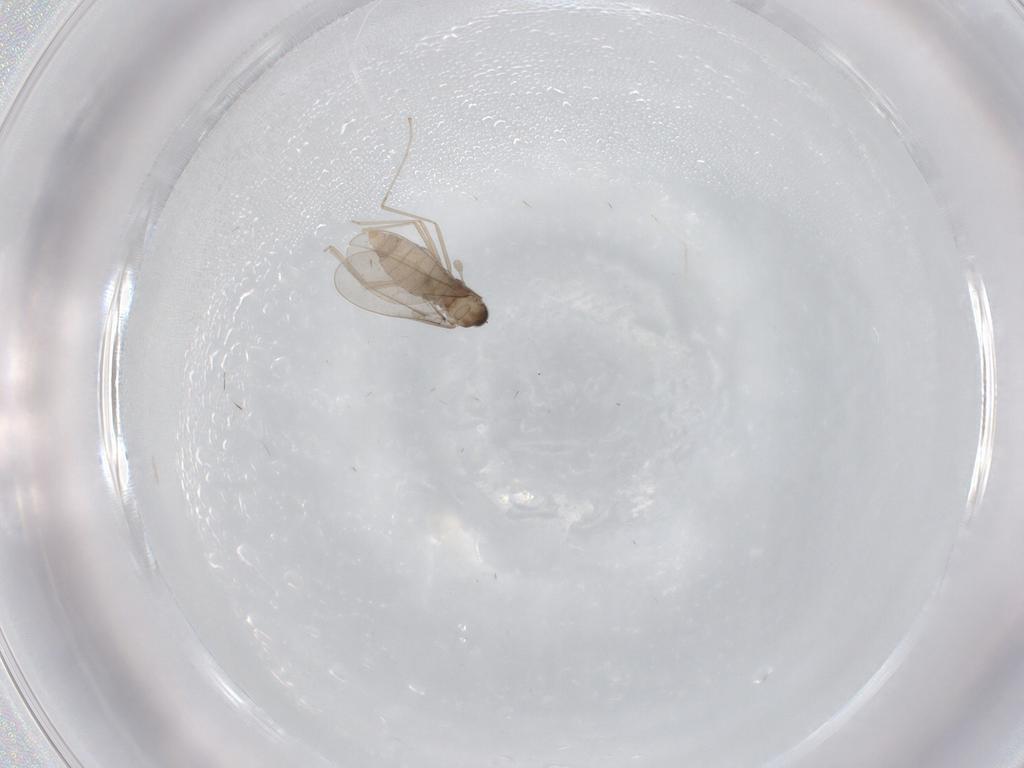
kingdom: Animalia
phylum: Arthropoda
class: Insecta
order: Diptera
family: Cecidomyiidae
